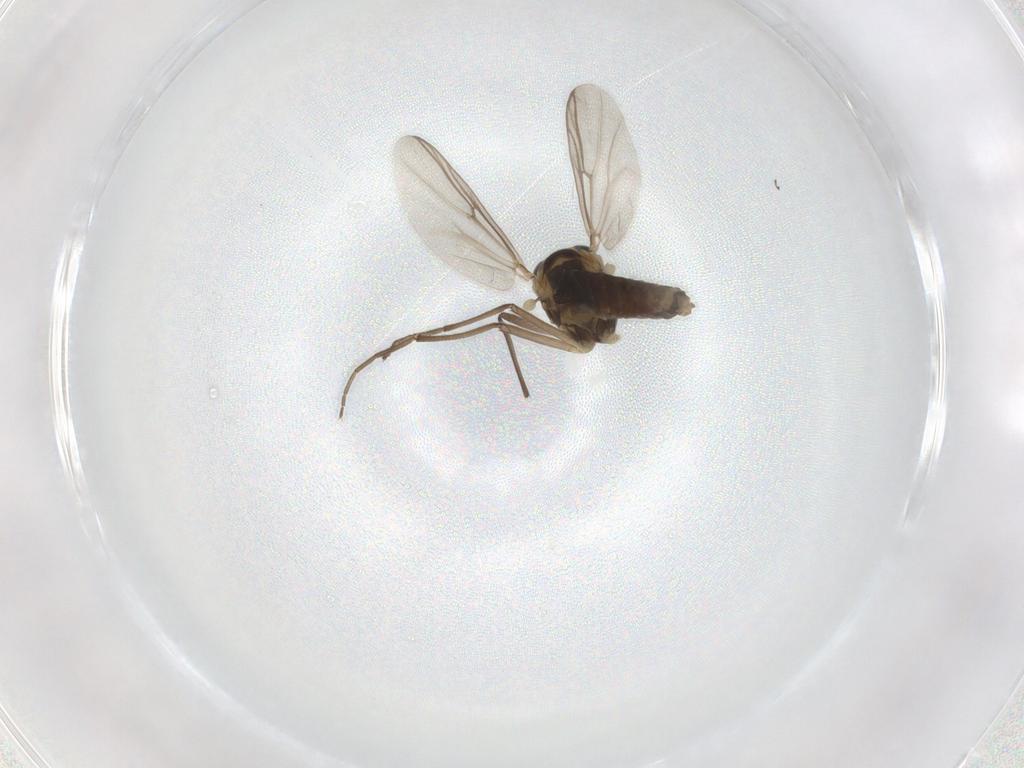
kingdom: Animalia
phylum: Arthropoda
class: Insecta
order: Diptera
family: Chironomidae
